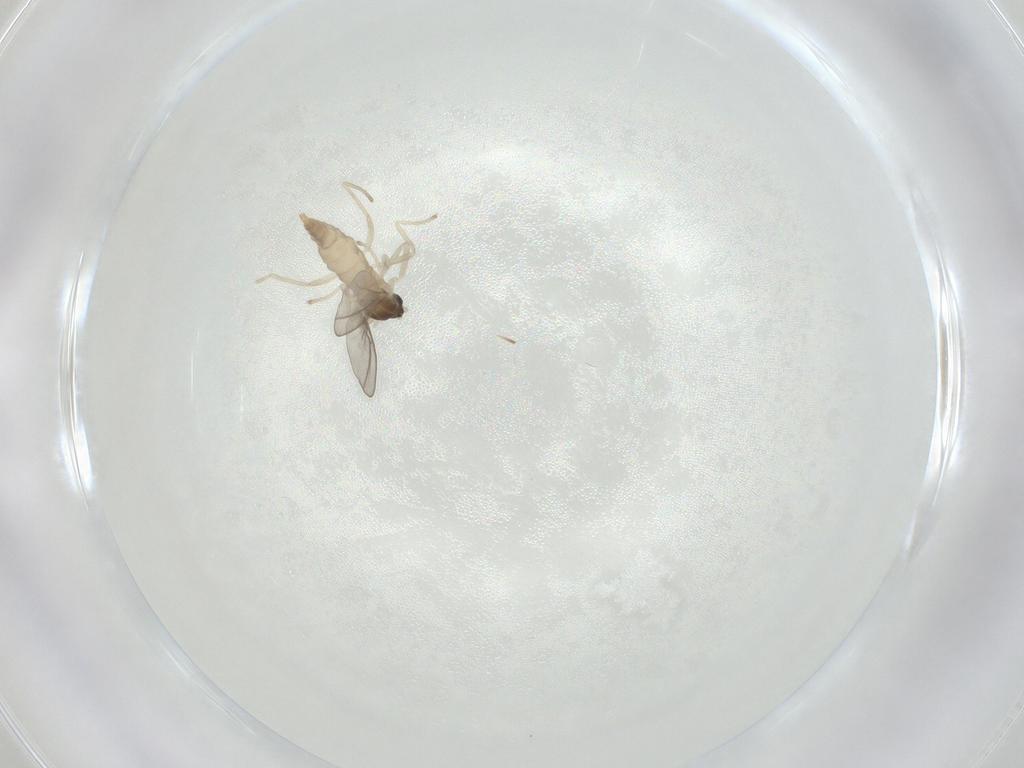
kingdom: Animalia
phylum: Arthropoda
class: Insecta
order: Diptera
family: Cecidomyiidae
